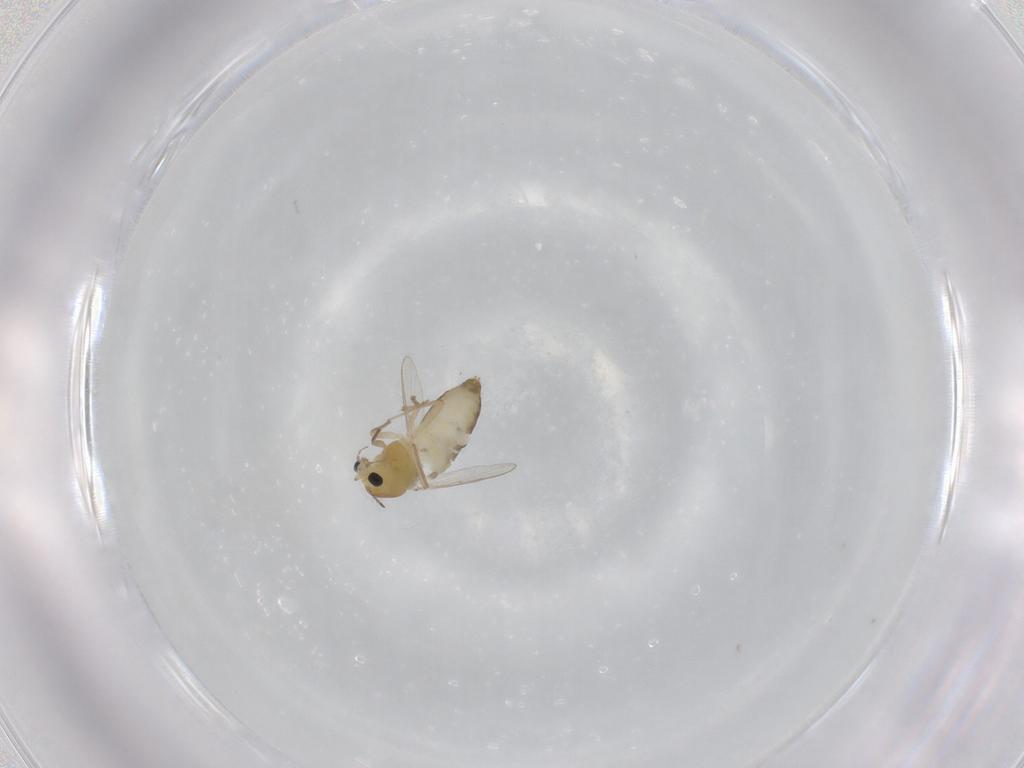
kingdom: Animalia
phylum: Arthropoda
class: Insecta
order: Diptera
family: Chironomidae
